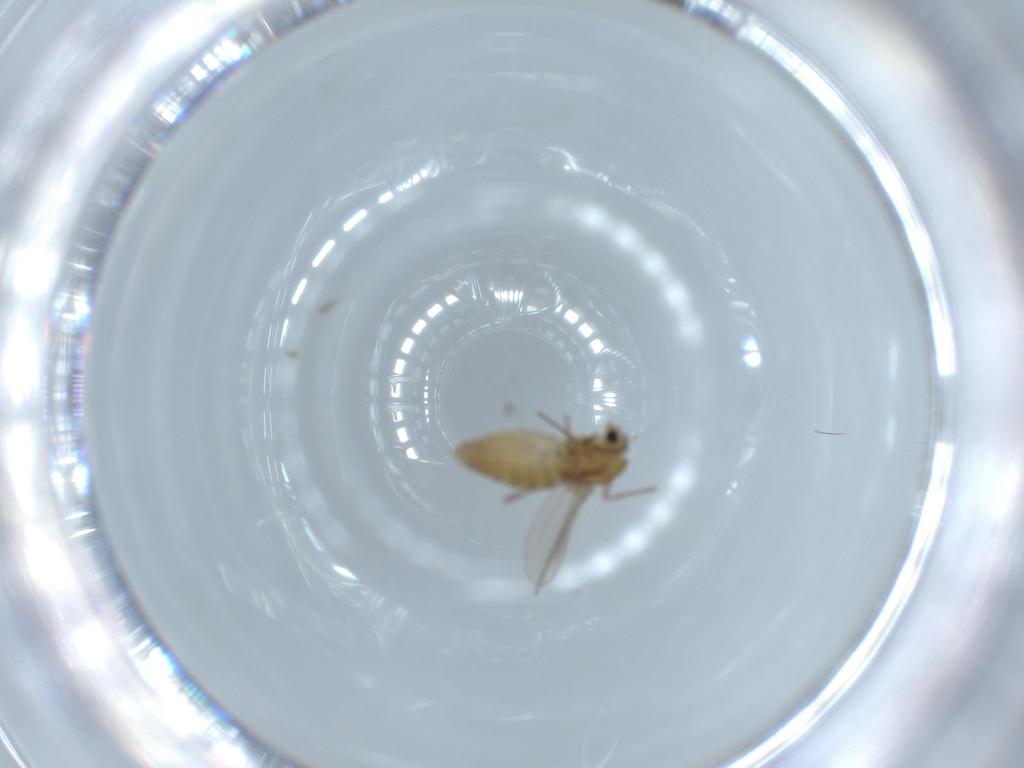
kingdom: Animalia
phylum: Arthropoda
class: Insecta
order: Diptera
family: Chironomidae
